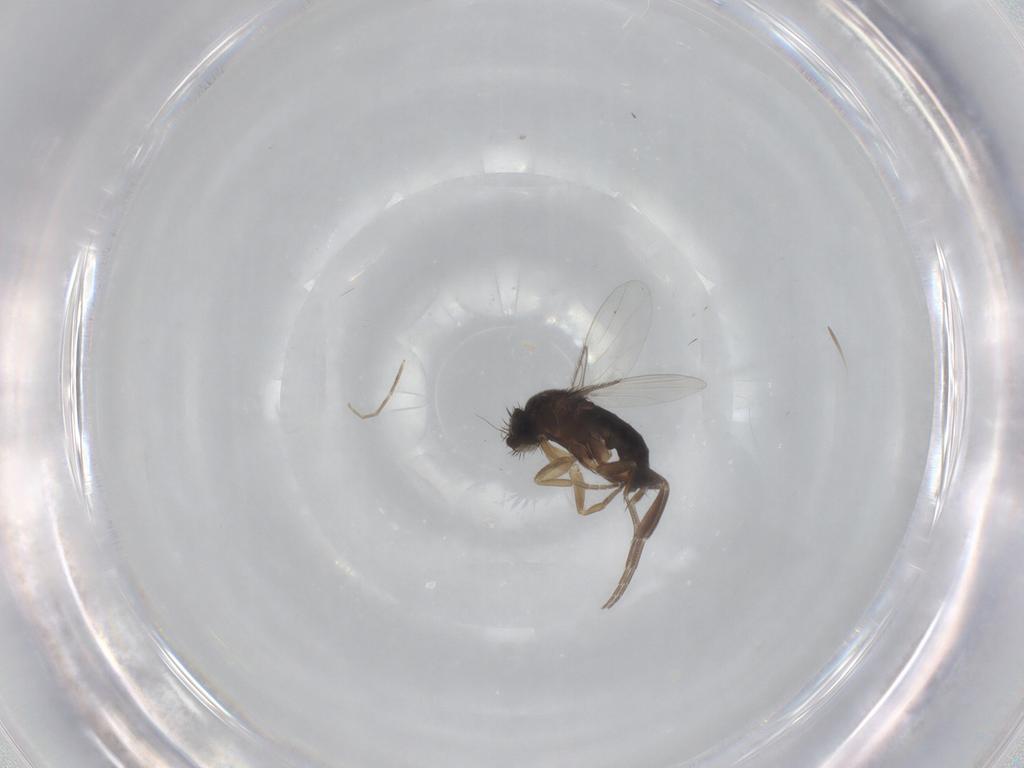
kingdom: Animalia
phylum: Arthropoda
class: Insecta
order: Diptera
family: Phoridae
